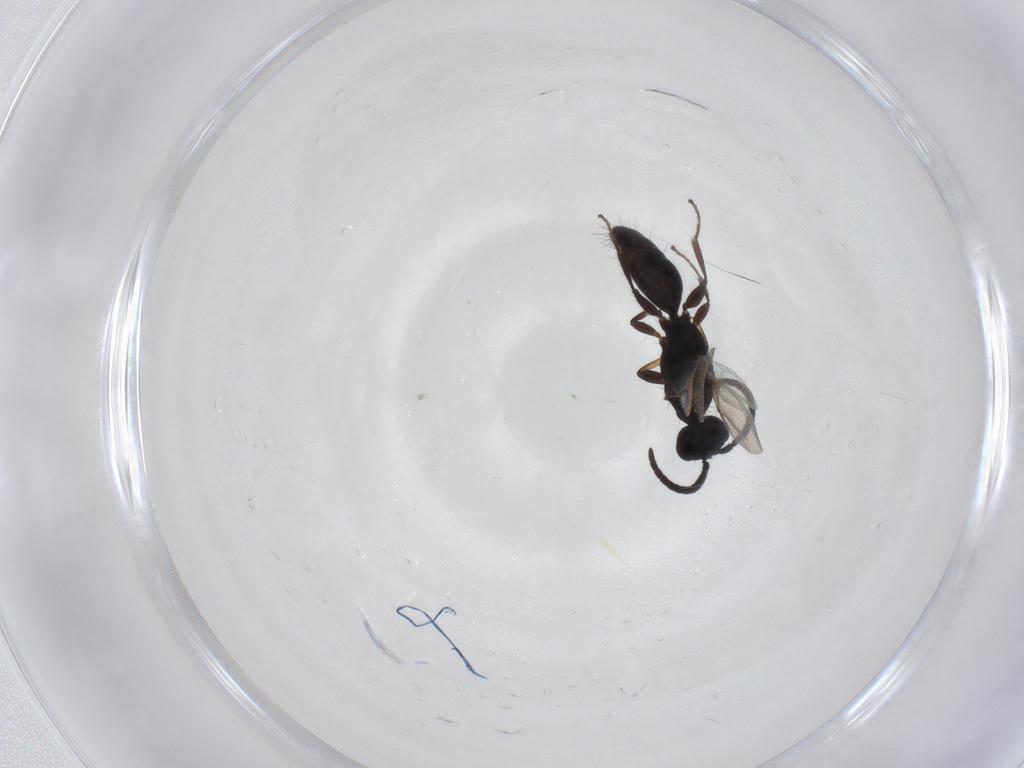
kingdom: Animalia
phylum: Arthropoda
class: Insecta
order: Hymenoptera
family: Bethylidae
